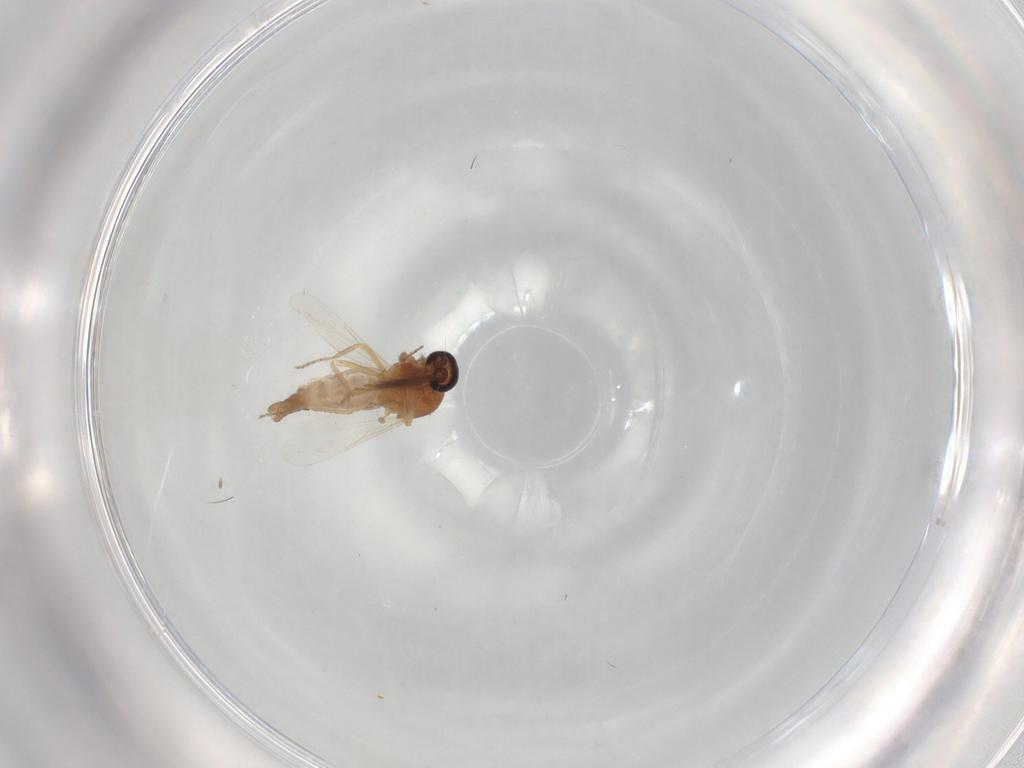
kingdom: Animalia
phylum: Arthropoda
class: Insecta
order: Diptera
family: Ceratopogonidae
